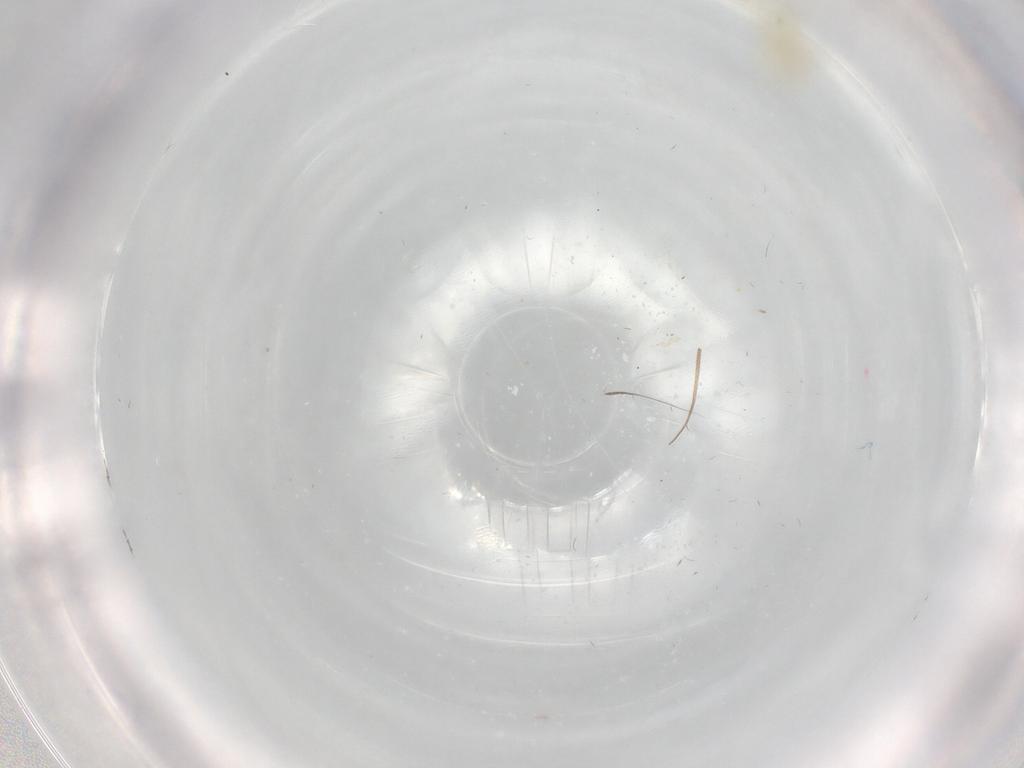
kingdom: Animalia
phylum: Arthropoda
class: Insecta
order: Hemiptera
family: Aleyrodidae
